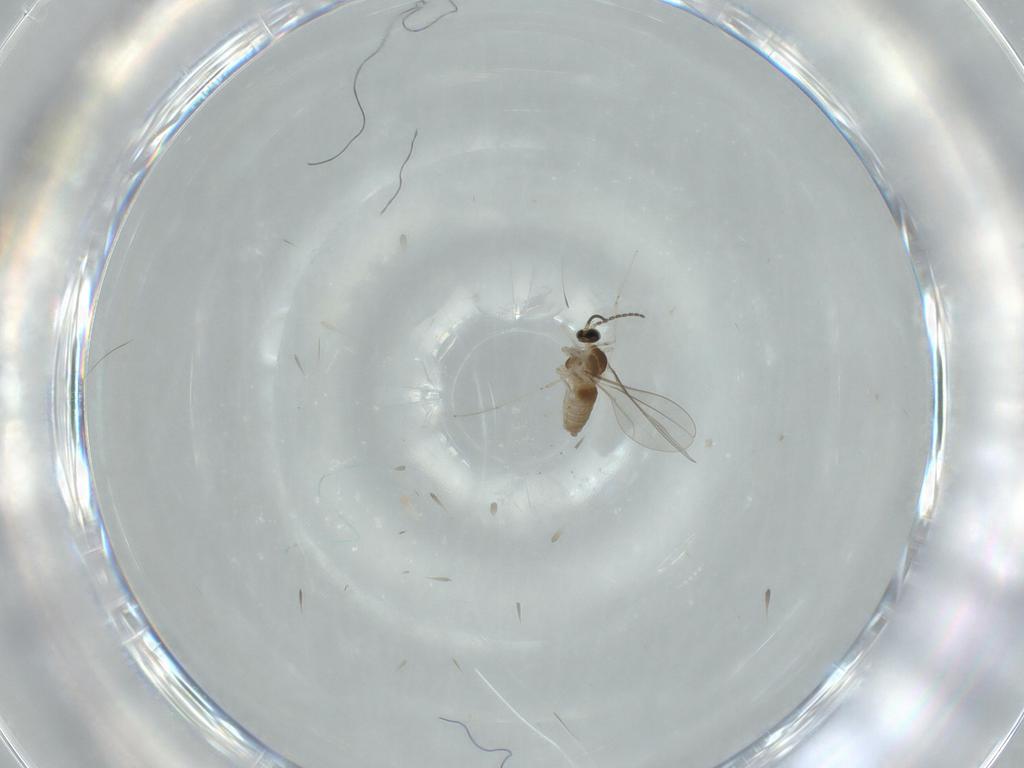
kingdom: Animalia
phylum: Arthropoda
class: Insecta
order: Diptera
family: Cecidomyiidae
